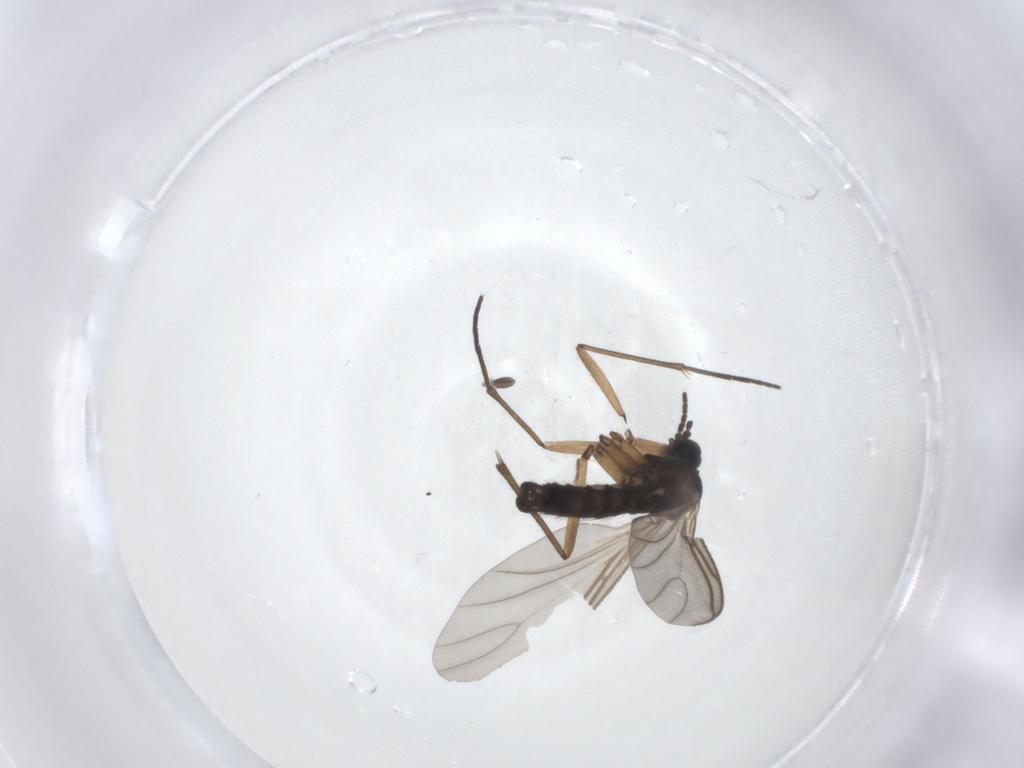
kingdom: Animalia
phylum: Arthropoda
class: Insecta
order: Diptera
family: Sciaridae
